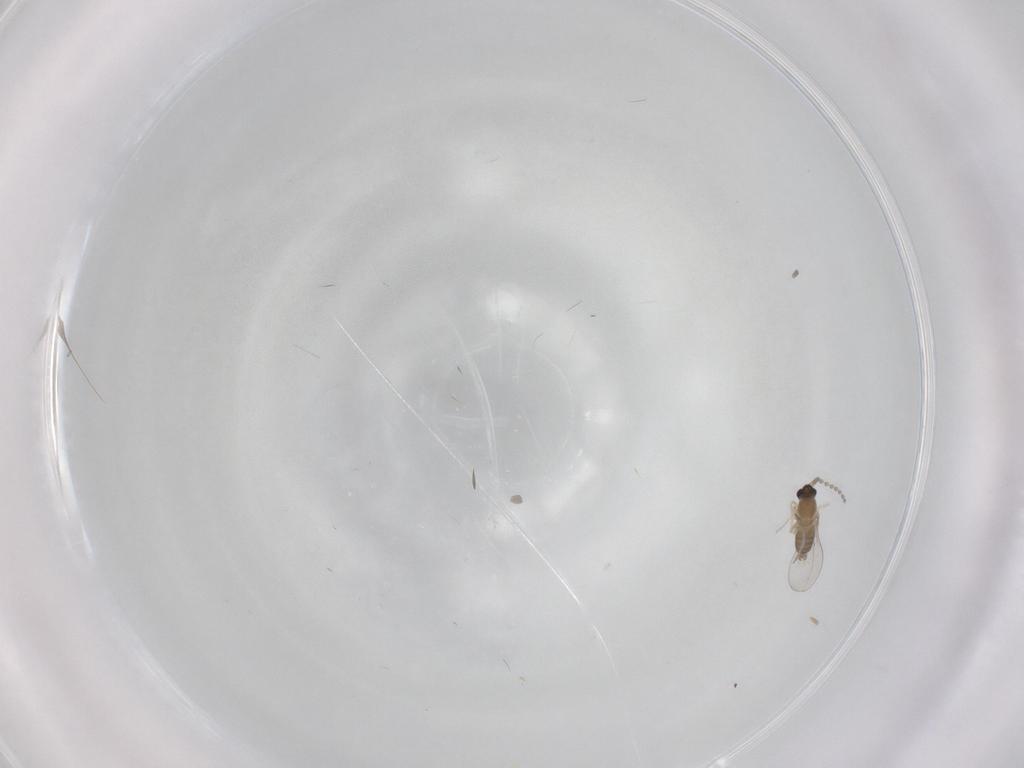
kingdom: Animalia
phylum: Arthropoda
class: Insecta
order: Diptera
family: Cecidomyiidae
